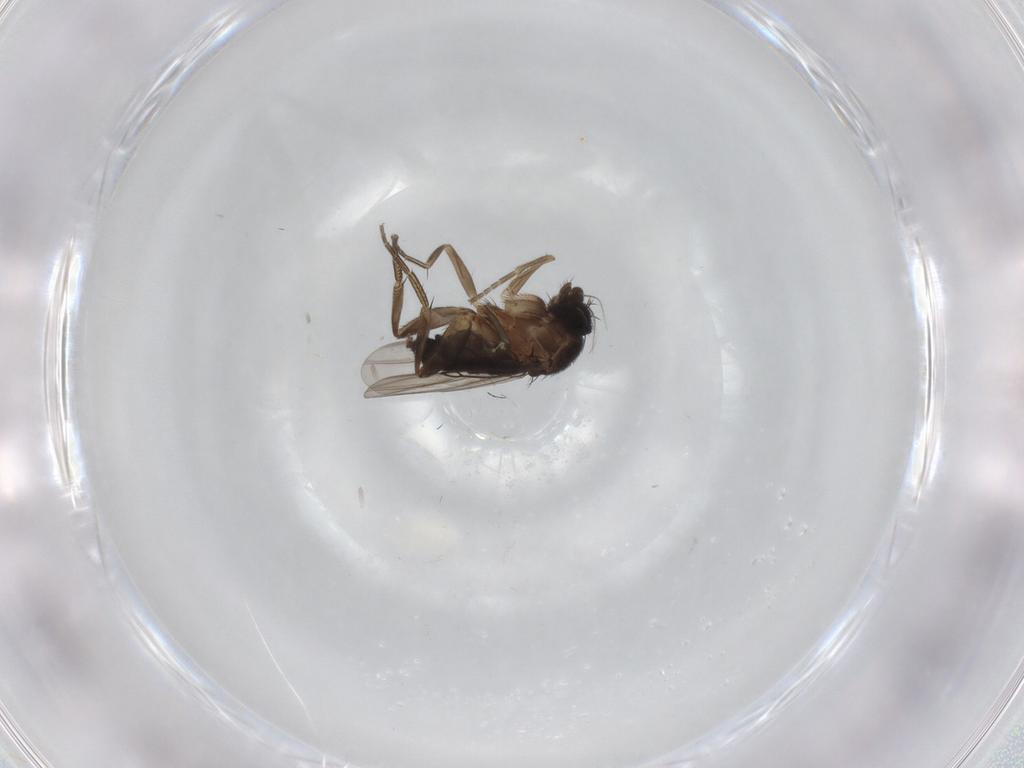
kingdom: Animalia
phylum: Arthropoda
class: Insecta
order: Diptera
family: Phoridae
